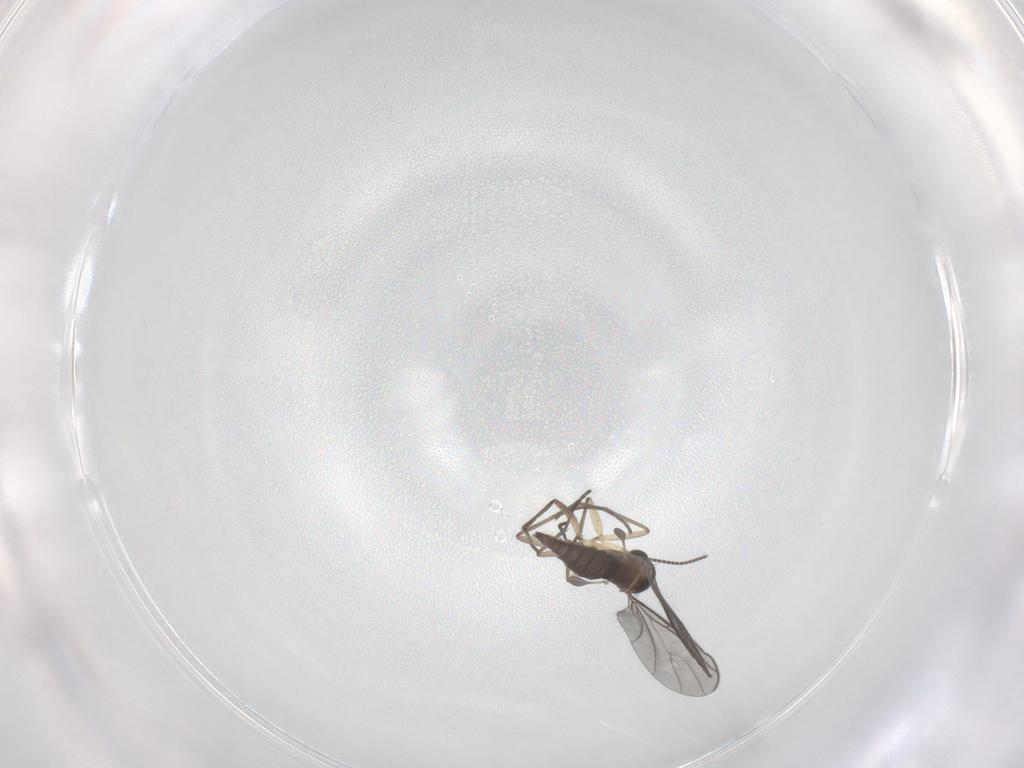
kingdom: Animalia
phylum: Arthropoda
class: Insecta
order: Diptera
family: Sciaridae
